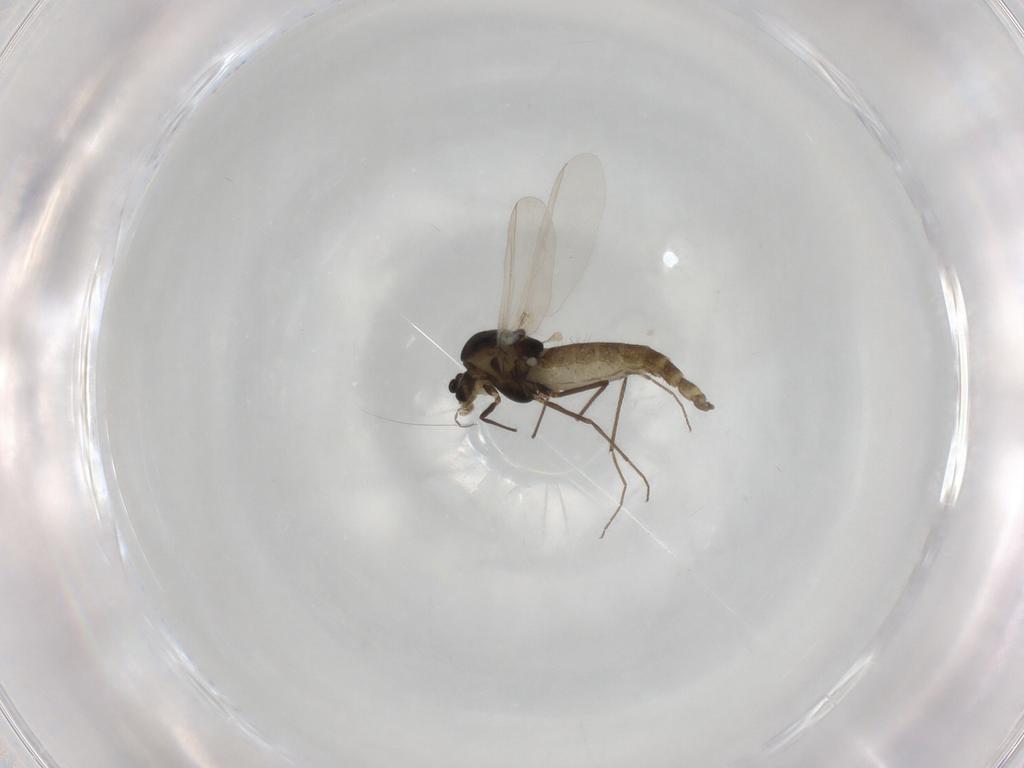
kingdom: Animalia
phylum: Arthropoda
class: Insecta
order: Diptera
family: Chironomidae
